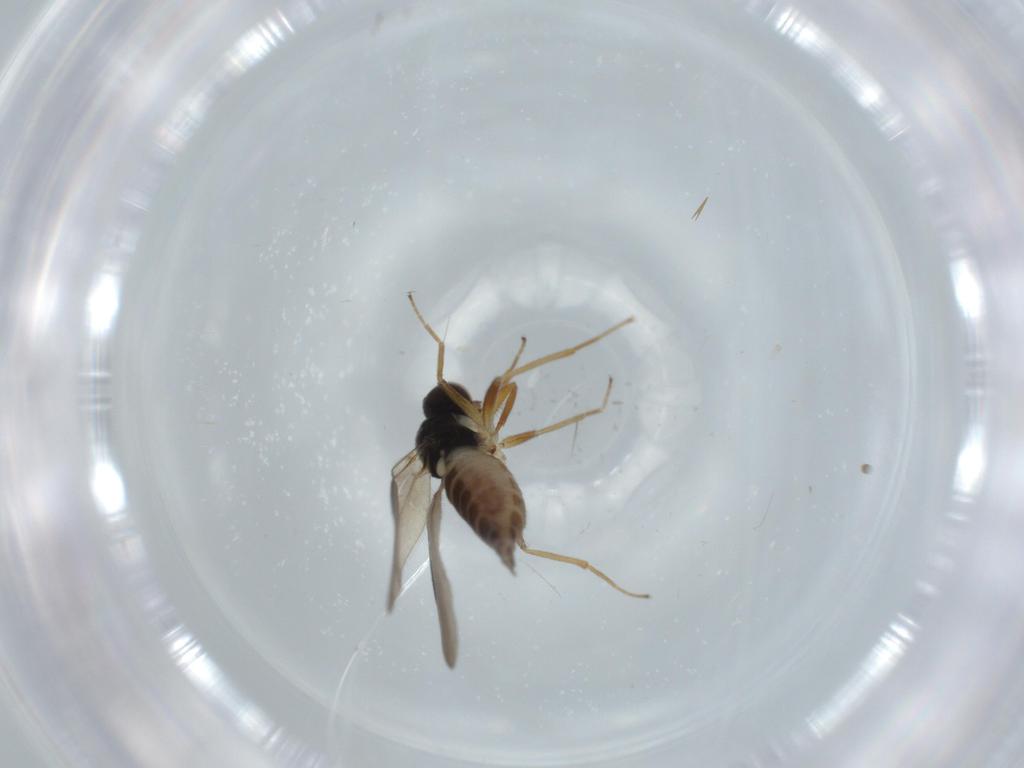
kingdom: Animalia
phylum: Arthropoda
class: Insecta
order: Diptera
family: Hybotidae
